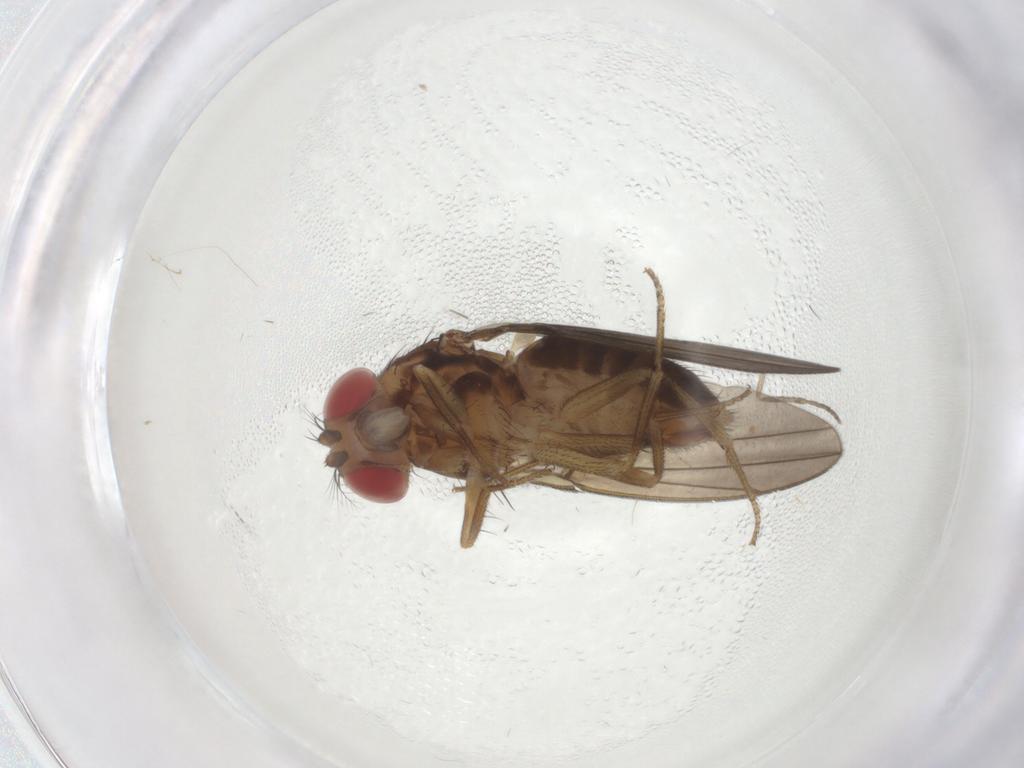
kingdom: Animalia
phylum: Arthropoda
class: Insecta
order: Diptera
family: Drosophilidae
